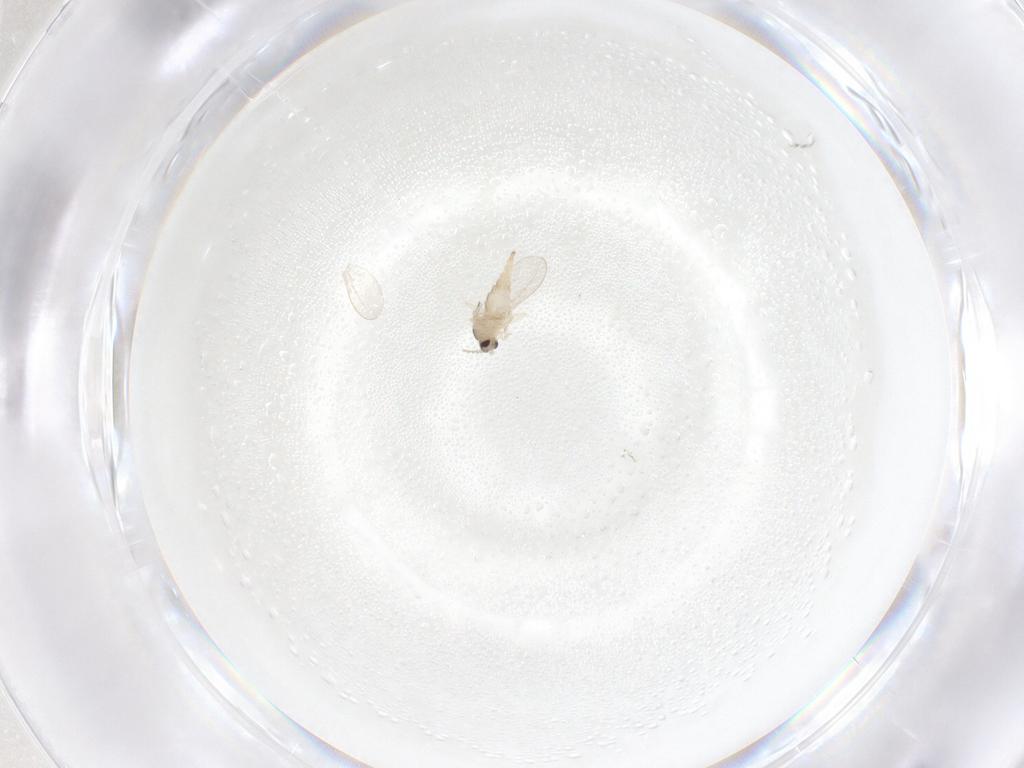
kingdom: Animalia
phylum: Arthropoda
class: Insecta
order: Diptera
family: Cecidomyiidae
